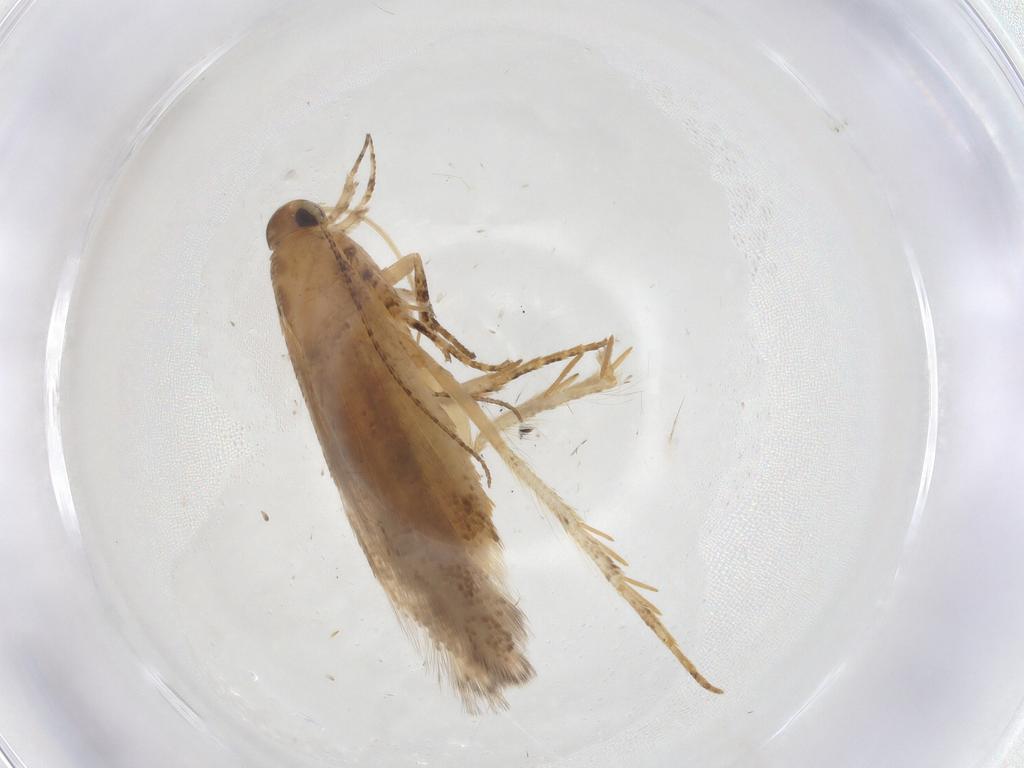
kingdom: Animalia
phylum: Arthropoda
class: Insecta
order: Lepidoptera
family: Gelechiidae
